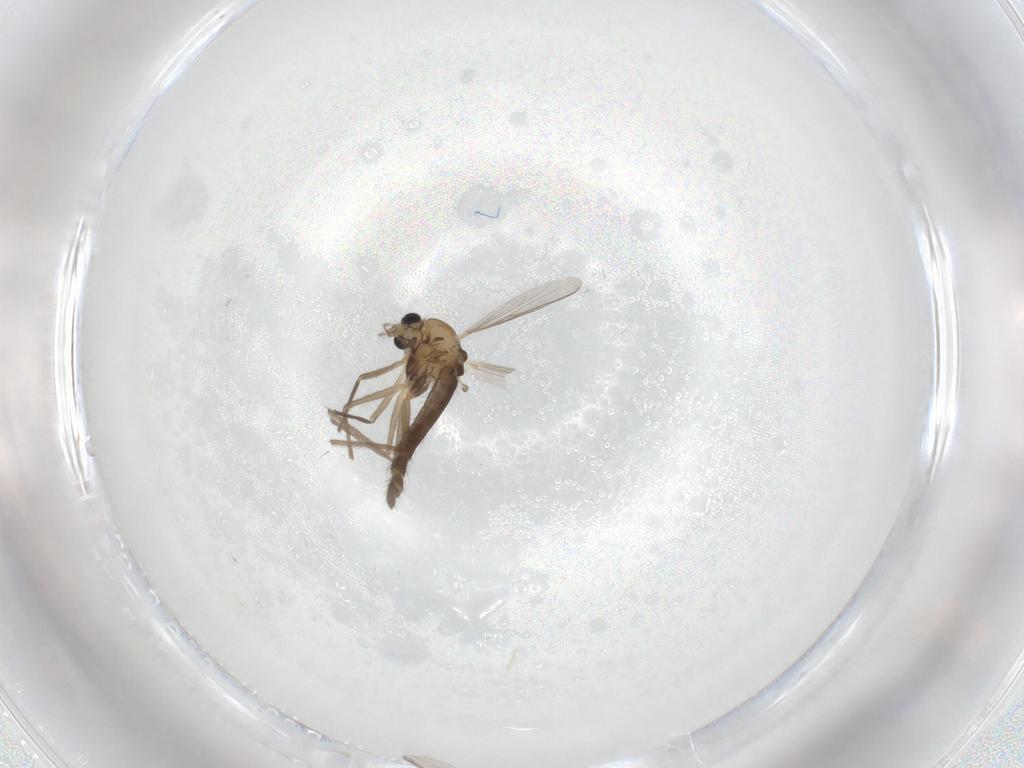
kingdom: Animalia
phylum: Arthropoda
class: Insecta
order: Diptera
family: Chironomidae
